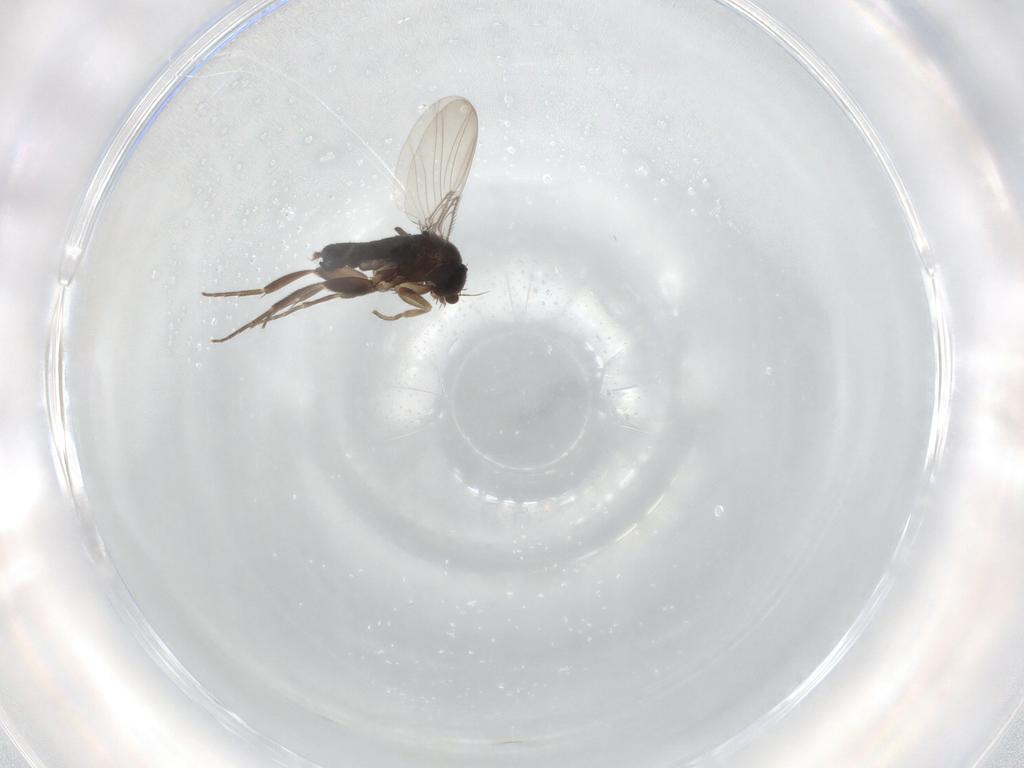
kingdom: Animalia
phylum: Arthropoda
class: Insecta
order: Diptera
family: Phoridae
